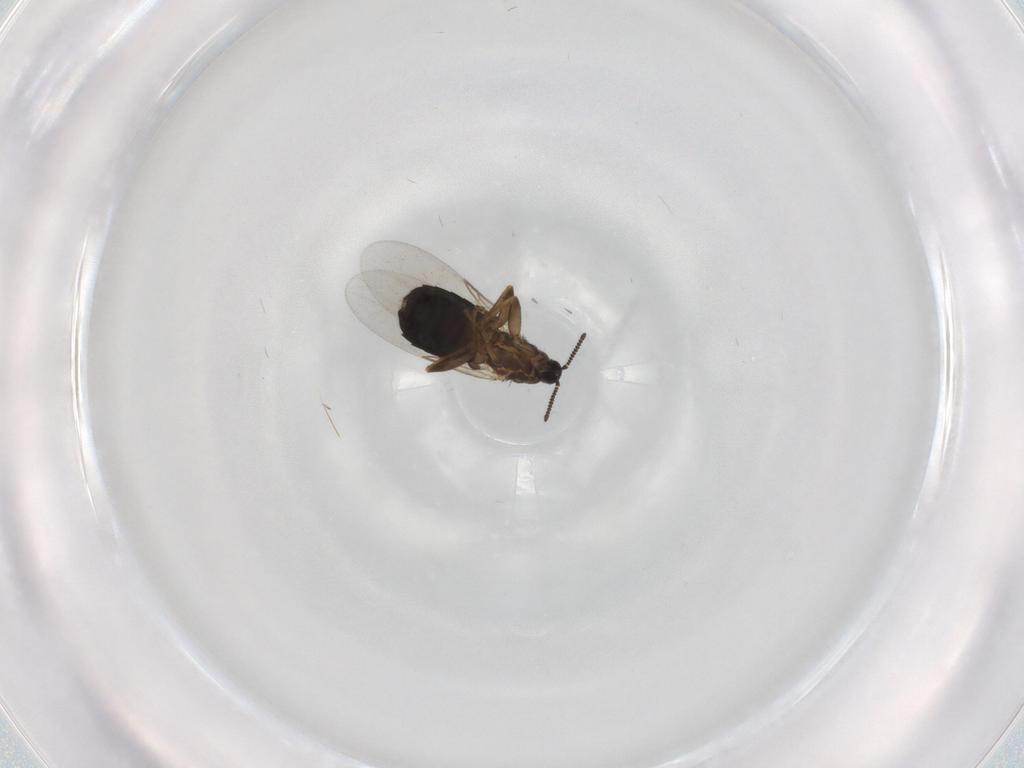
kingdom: Animalia
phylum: Arthropoda
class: Insecta
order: Diptera
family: Scatopsidae
